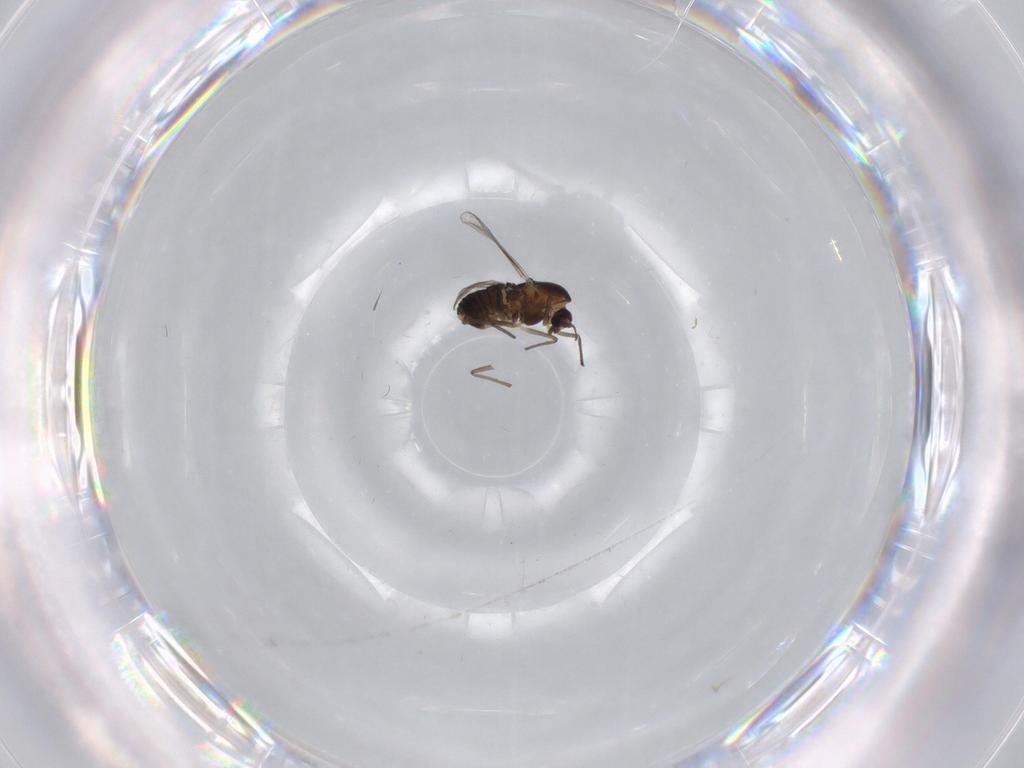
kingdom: Animalia
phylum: Arthropoda
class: Insecta
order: Diptera
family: Chironomidae
